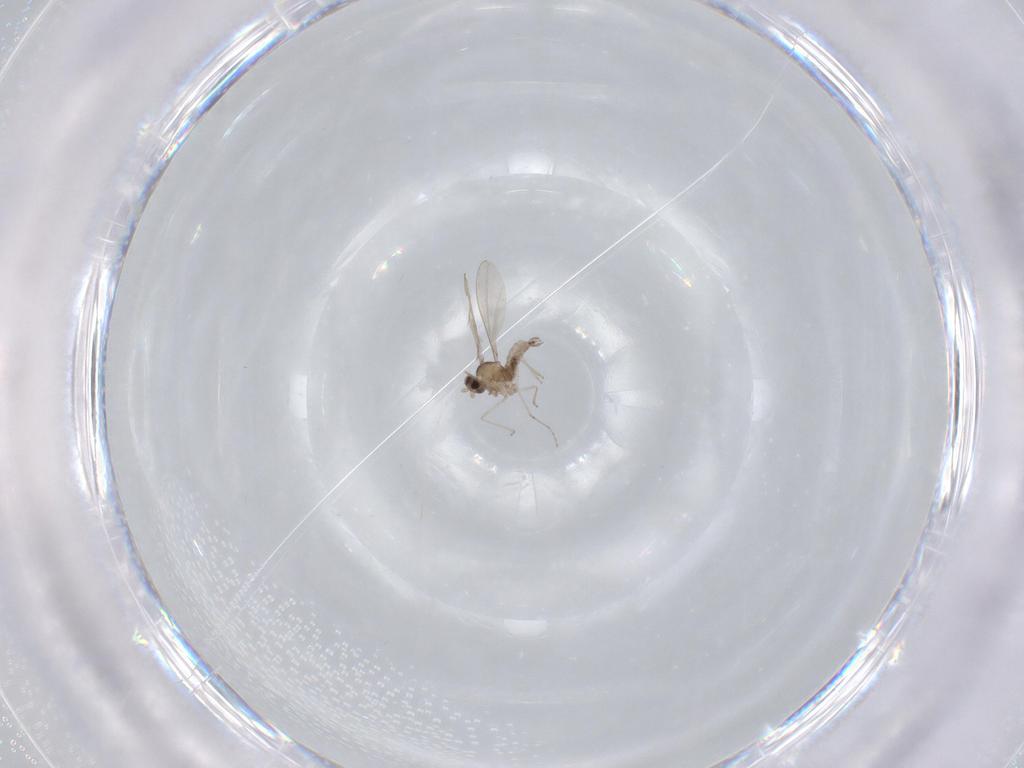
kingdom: Animalia
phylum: Arthropoda
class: Insecta
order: Diptera
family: Cecidomyiidae
